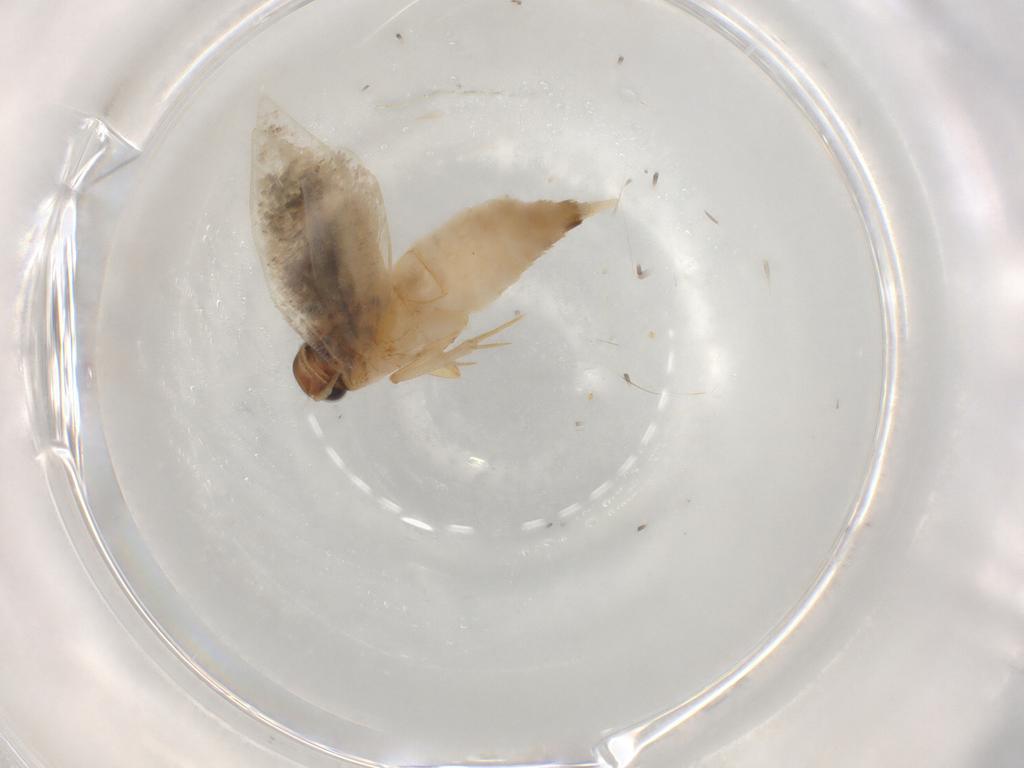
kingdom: Animalia
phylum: Arthropoda
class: Insecta
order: Lepidoptera
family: Gelechiidae
